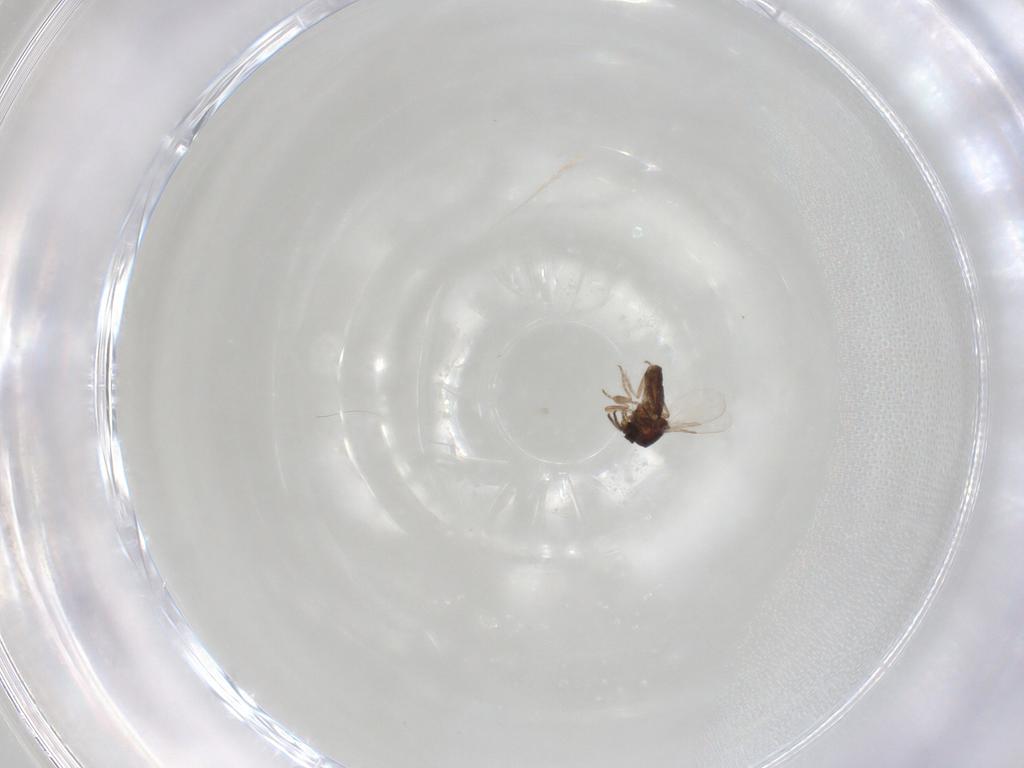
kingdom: Animalia
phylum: Arthropoda
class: Insecta
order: Diptera
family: Ceratopogonidae
